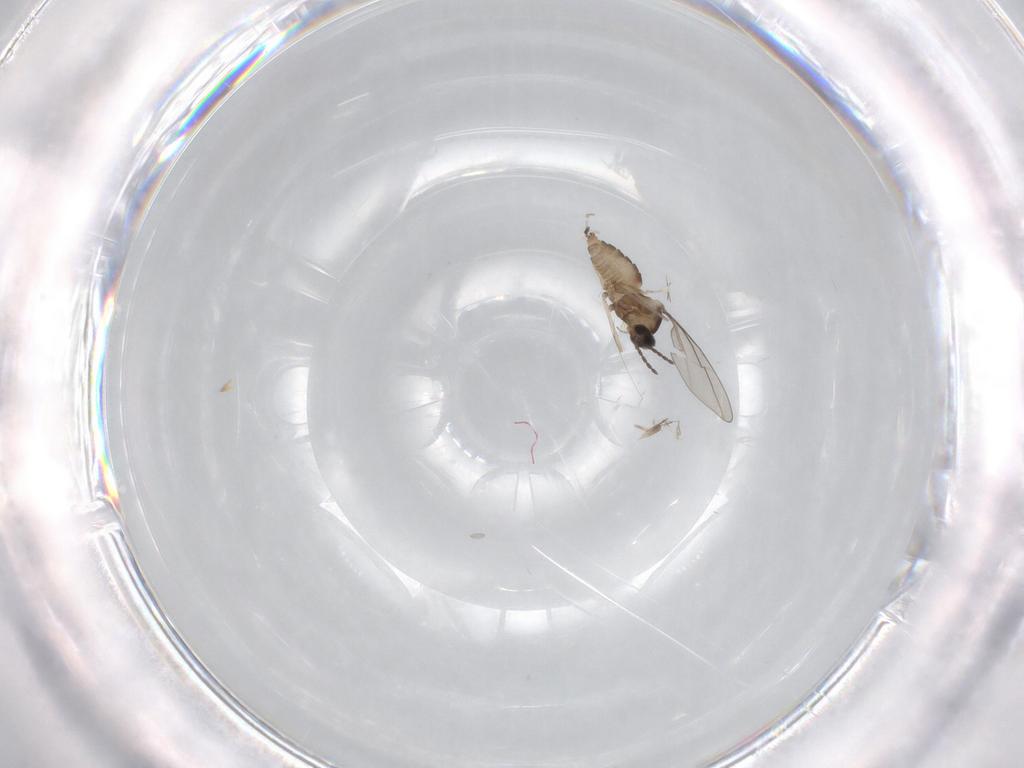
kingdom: Animalia
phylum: Arthropoda
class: Insecta
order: Diptera
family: Cecidomyiidae
